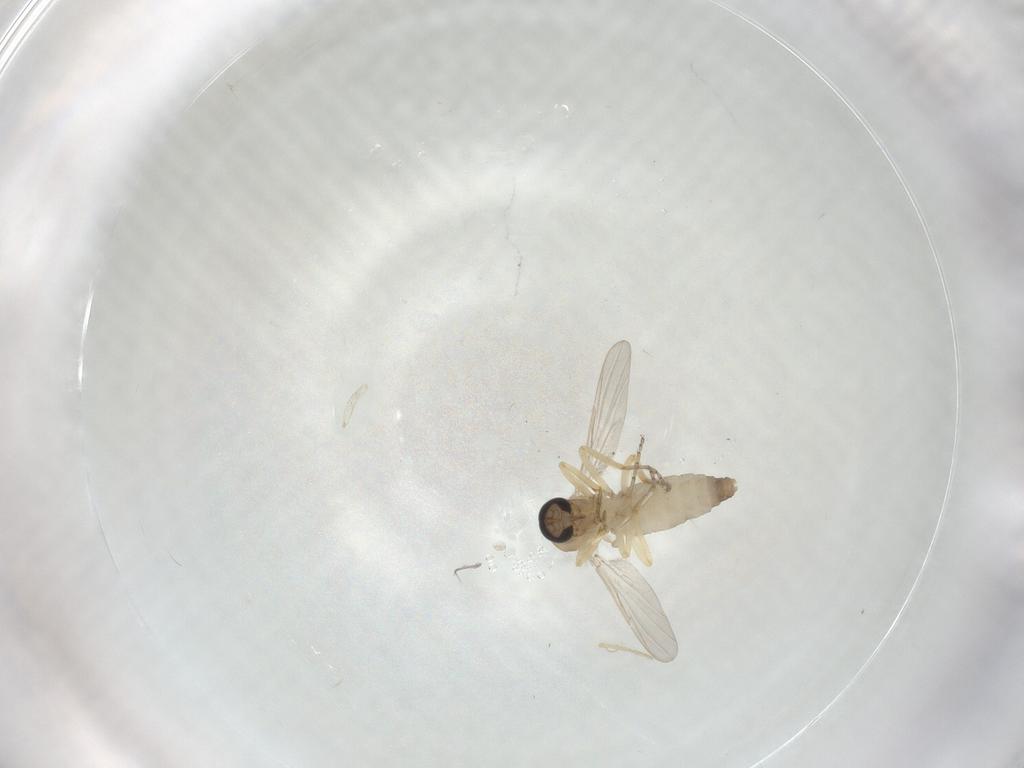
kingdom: Animalia
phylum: Arthropoda
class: Insecta
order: Diptera
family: Ceratopogonidae
